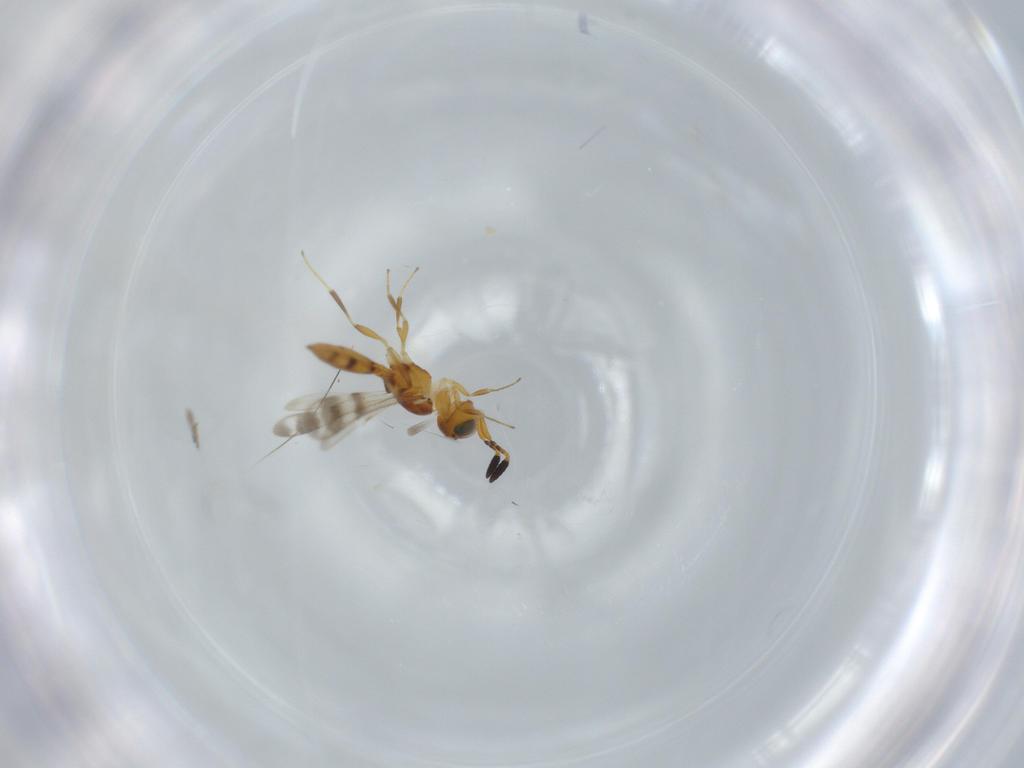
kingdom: Animalia
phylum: Arthropoda
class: Insecta
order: Hymenoptera
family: Scelionidae
